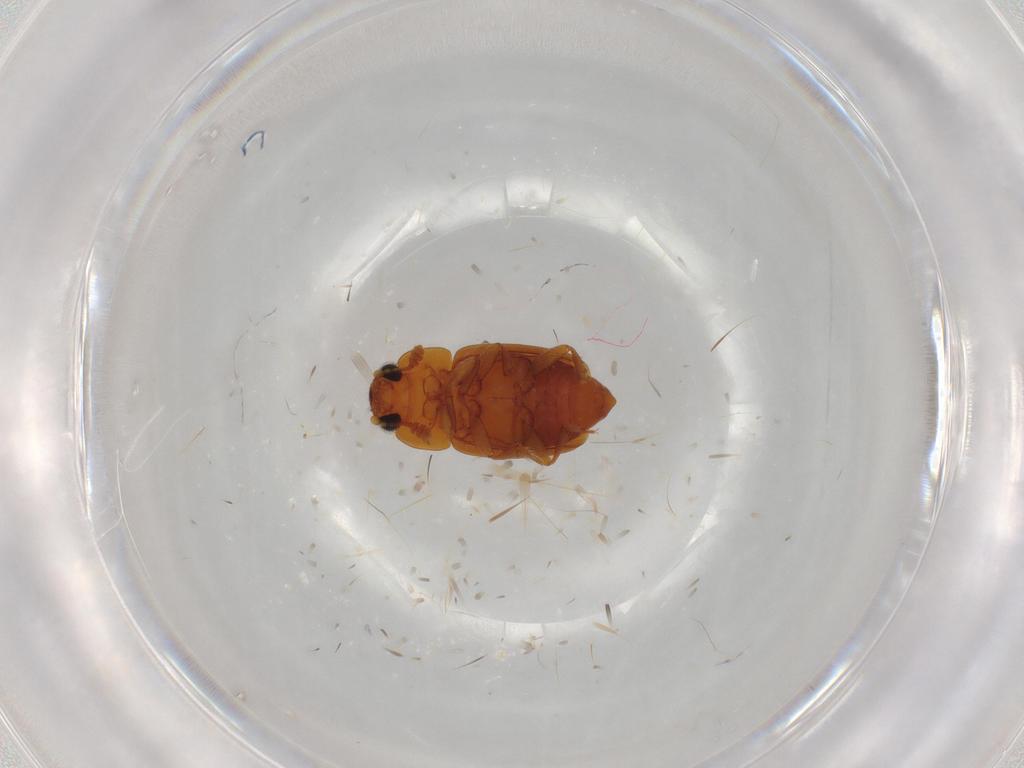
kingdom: Animalia
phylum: Arthropoda
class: Insecta
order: Coleoptera
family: Nitidulidae
